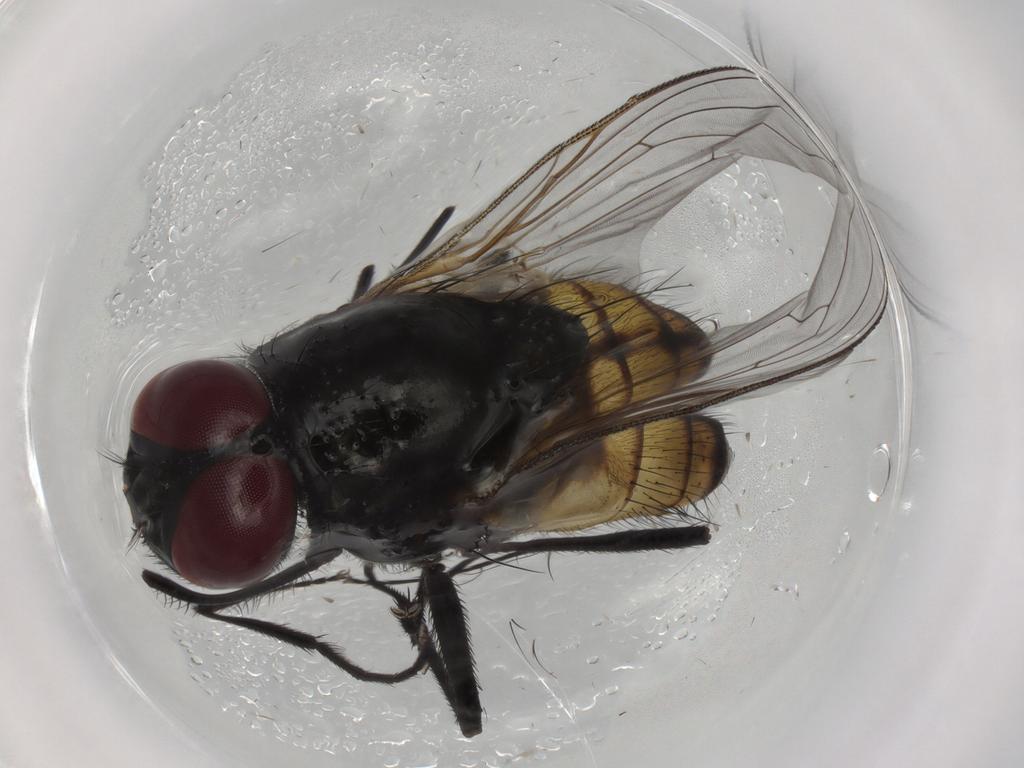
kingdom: Animalia
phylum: Arthropoda
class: Insecta
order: Diptera
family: Muscidae
